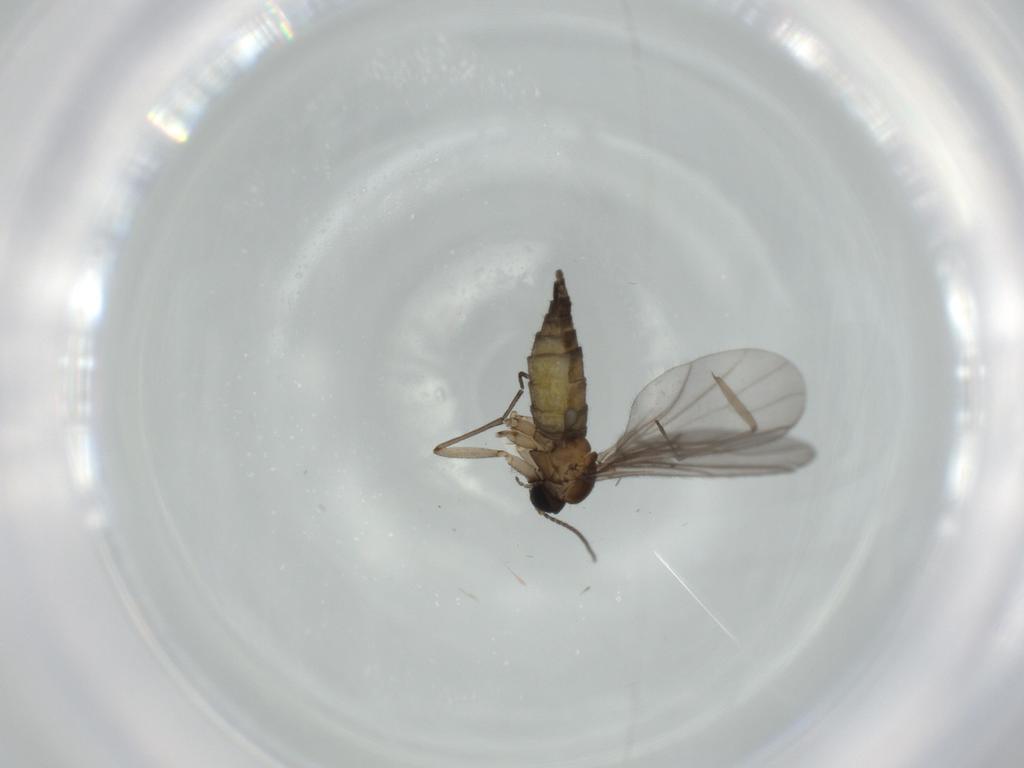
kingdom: Animalia
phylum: Arthropoda
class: Insecta
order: Diptera
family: Sciaridae
